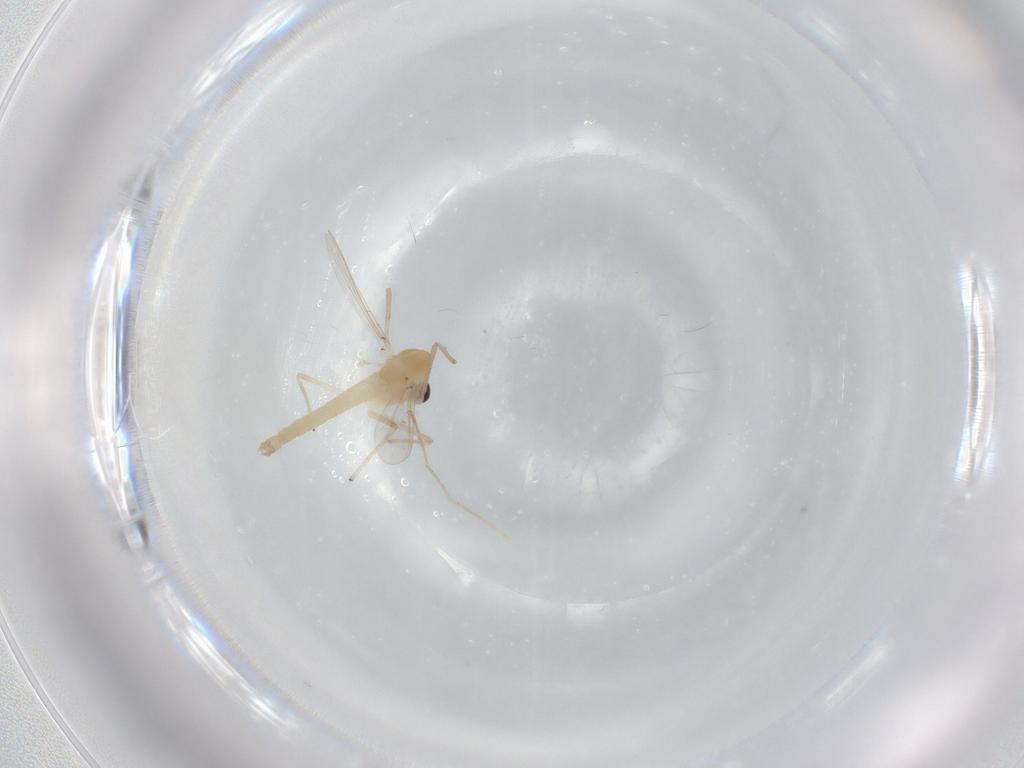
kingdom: Animalia
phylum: Arthropoda
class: Insecta
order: Diptera
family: Chironomidae
